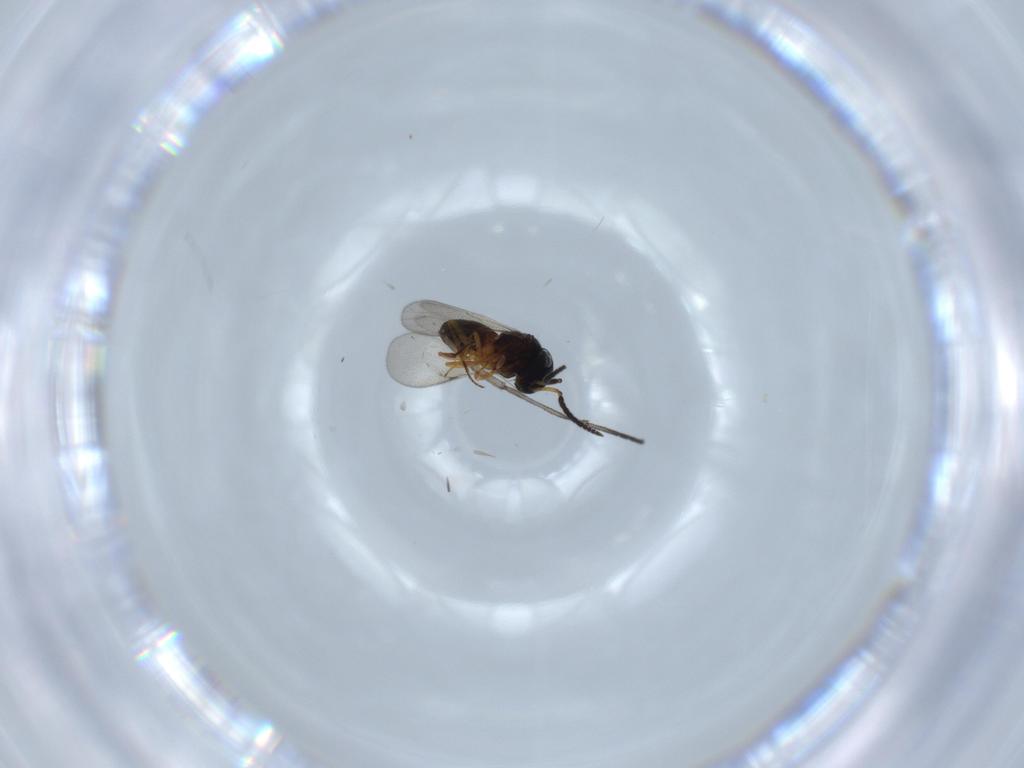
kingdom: Animalia
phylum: Arthropoda
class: Insecta
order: Hymenoptera
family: Scelionidae
